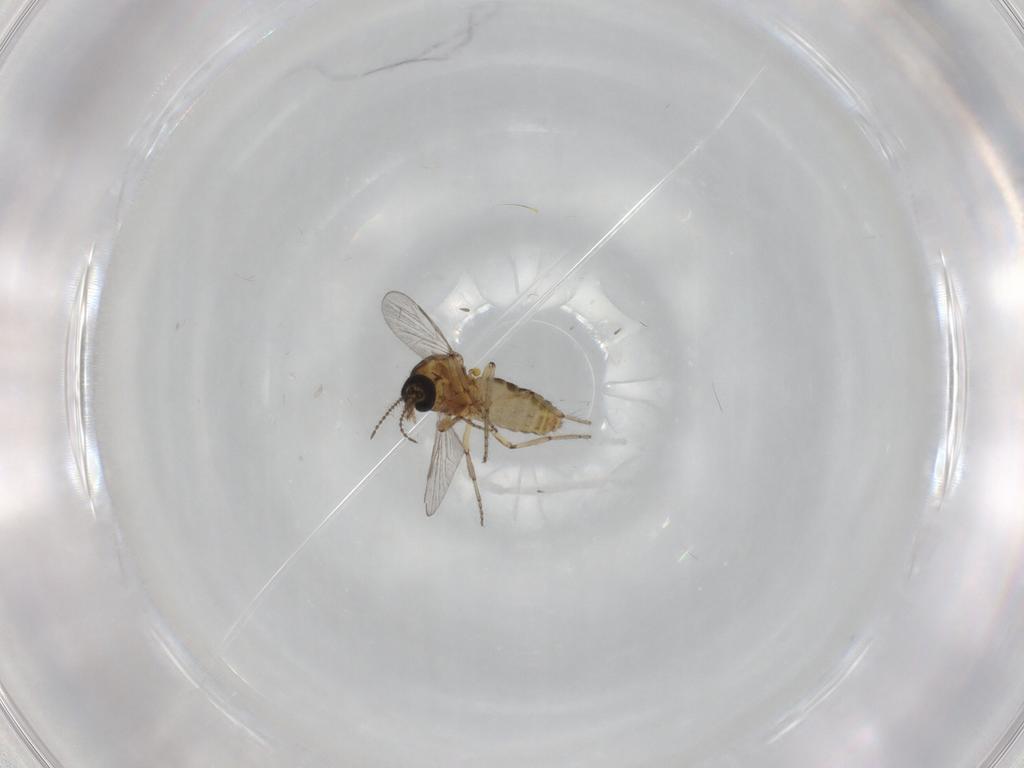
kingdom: Animalia
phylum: Arthropoda
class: Insecta
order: Diptera
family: Ceratopogonidae
